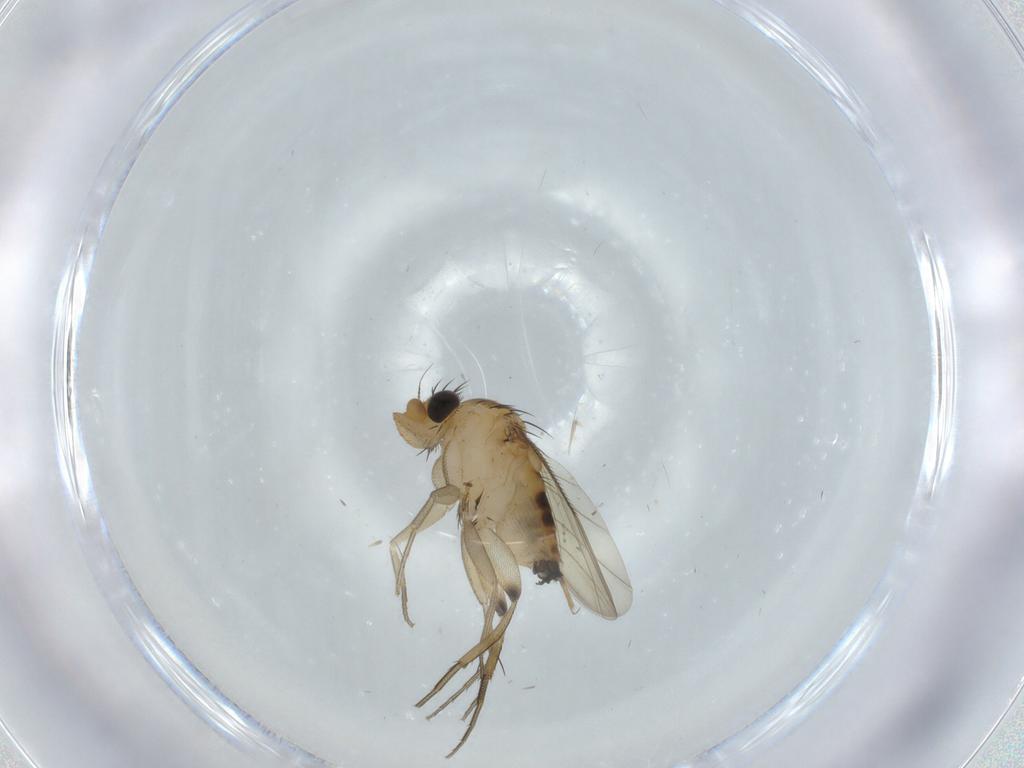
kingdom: Animalia
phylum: Arthropoda
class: Insecta
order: Diptera
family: Phoridae
